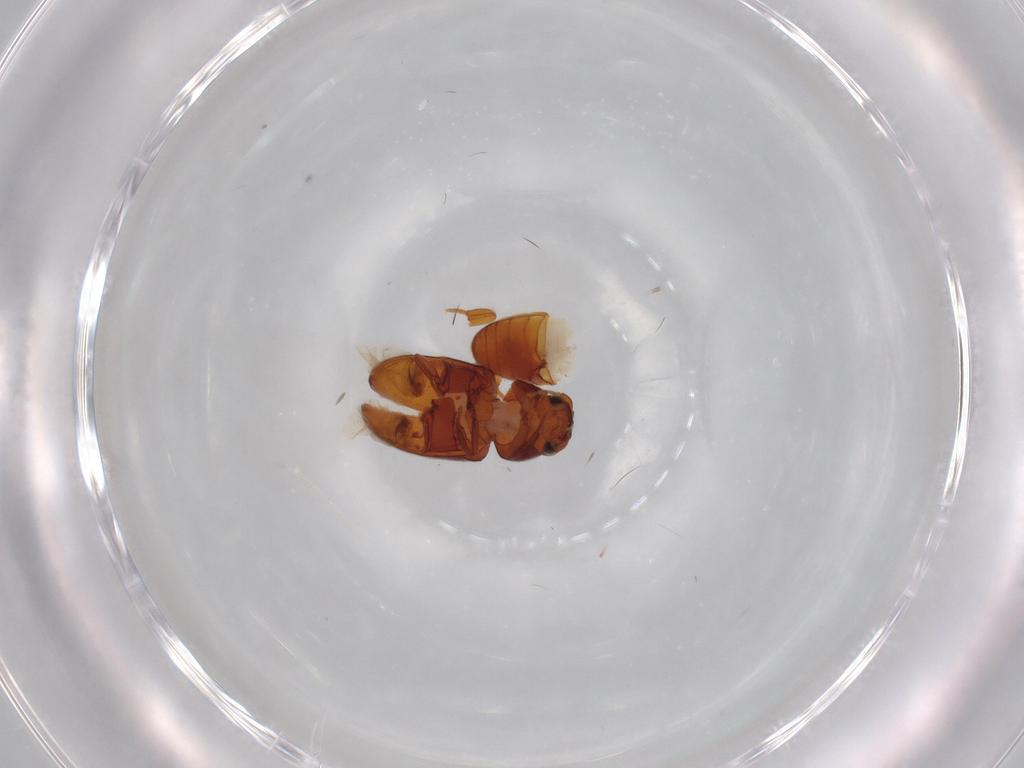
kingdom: Animalia
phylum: Arthropoda
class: Insecta
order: Coleoptera
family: Ptinidae
